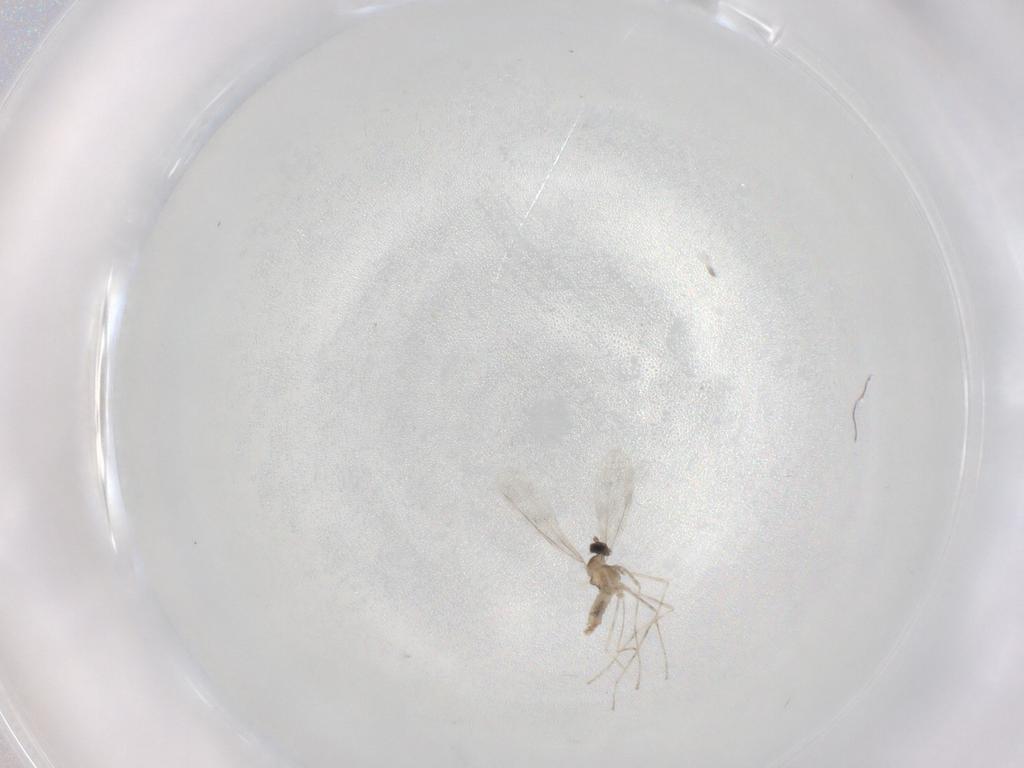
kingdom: Animalia
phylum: Arthropoda
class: Insecta
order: Diptera
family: Cecidomyiidae
